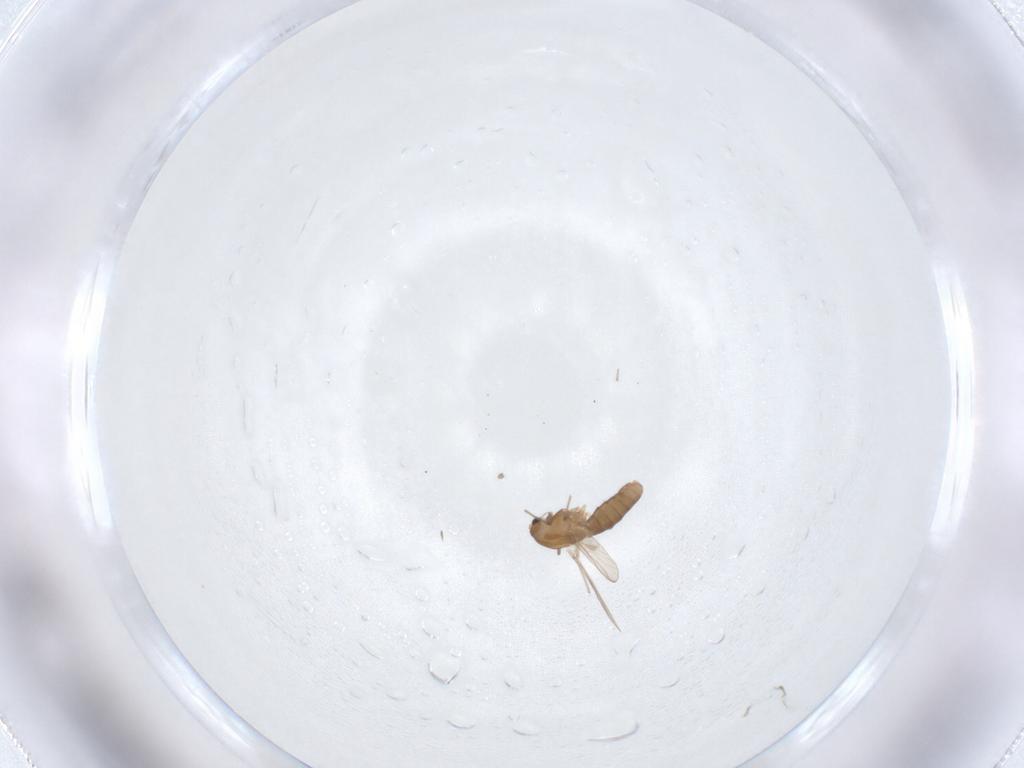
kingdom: Animalia
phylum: Arthropoda
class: Insecta
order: Diptera
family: Chironomidae
